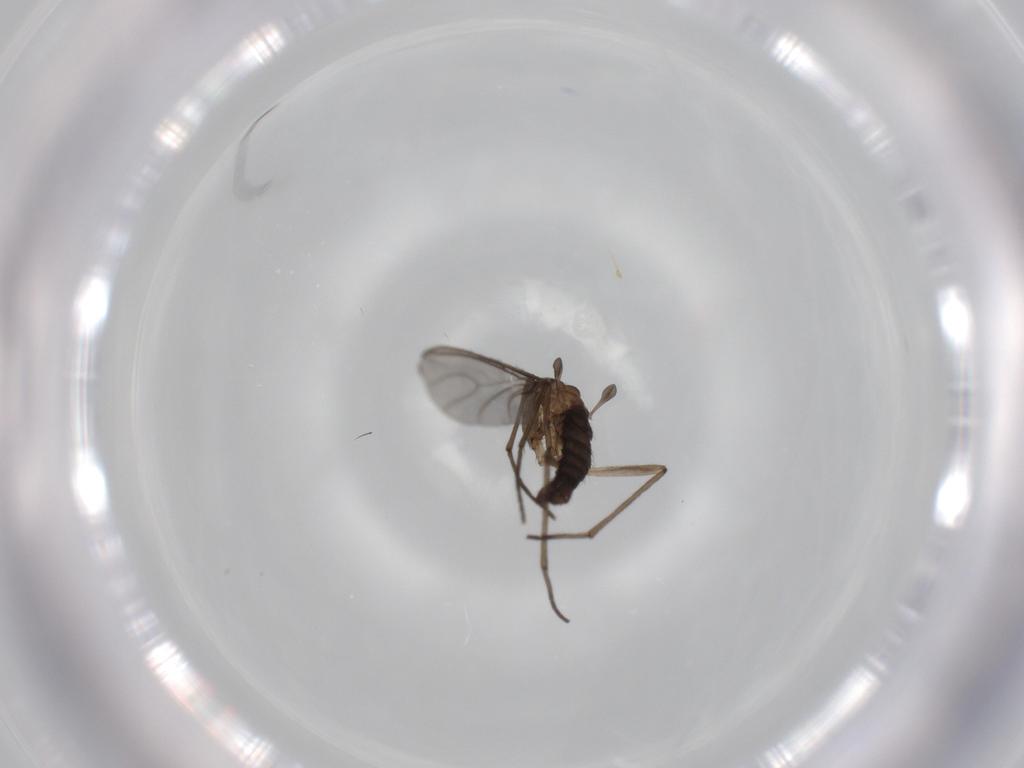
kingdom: Animalia
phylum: Arthropoda
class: Insecta
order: Diptera
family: Sciaridae
